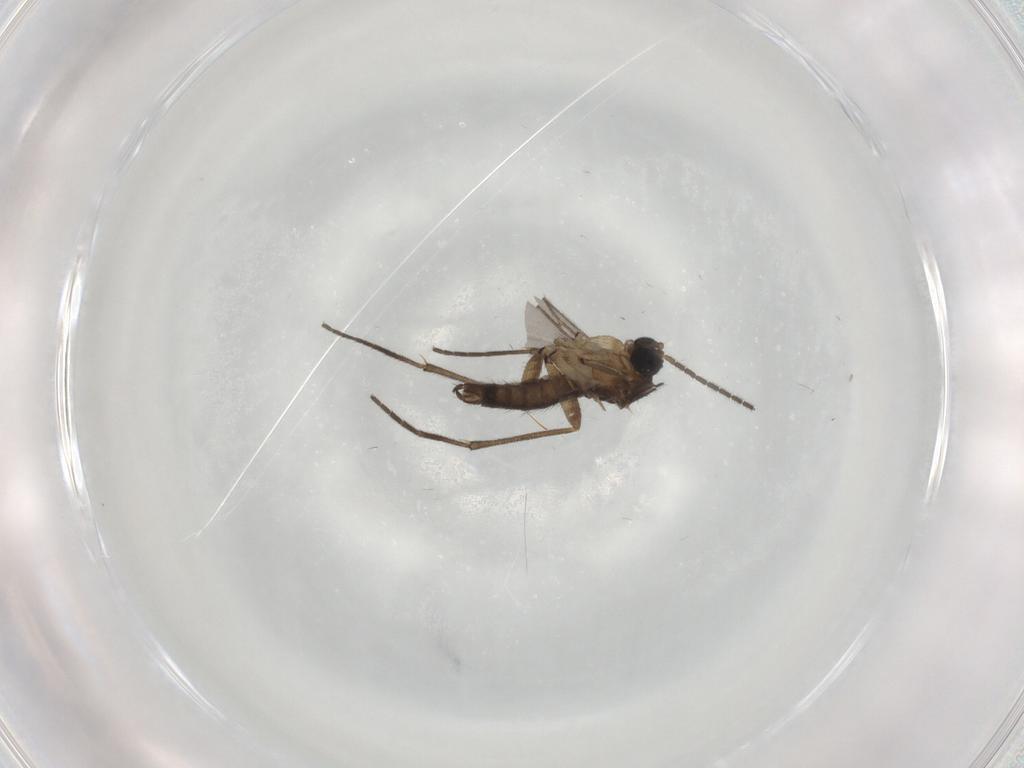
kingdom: Animalia
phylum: Arthropoda
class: Insecta
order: Diptera
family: Sciaridae
